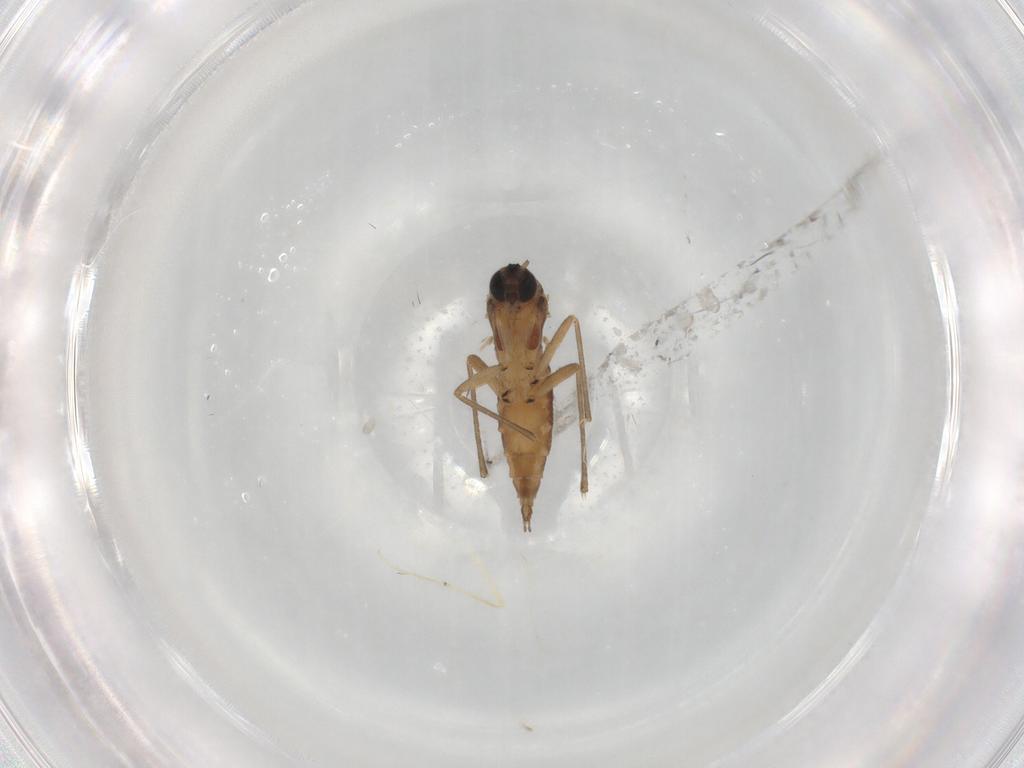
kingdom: Animalia
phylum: Arthropoda
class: Insecta
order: Diptera
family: Sciaridae
